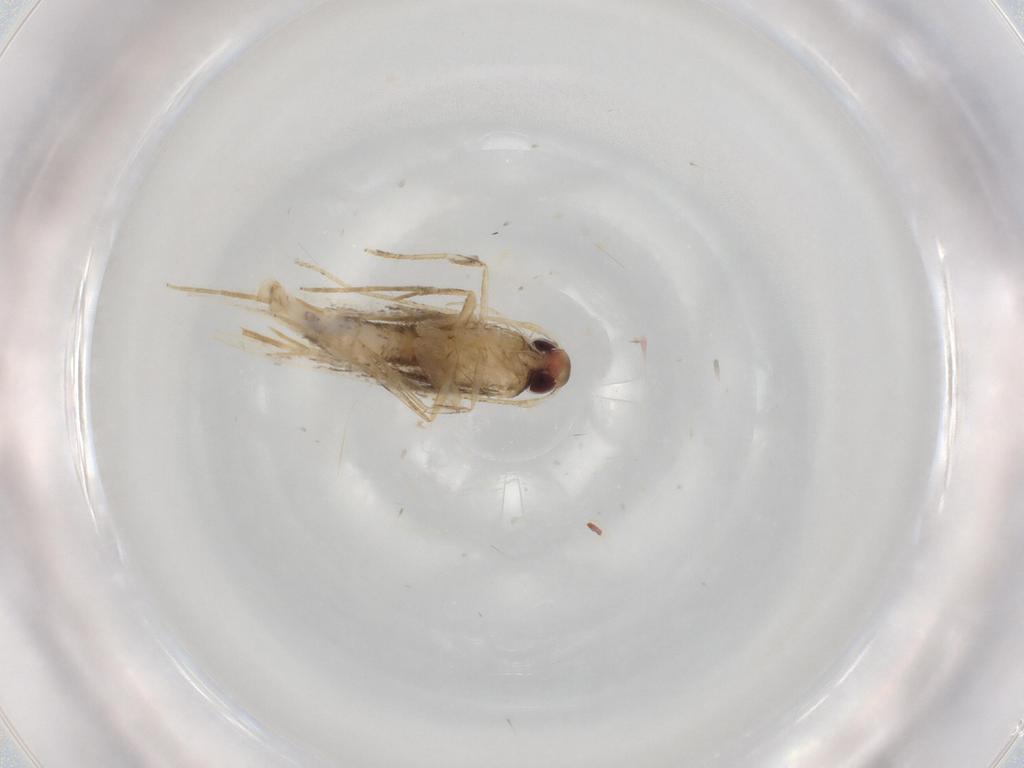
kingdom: Animalia
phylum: Arthropoda
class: Insecta
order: Lepidoptera
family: Cosmopterigidae
